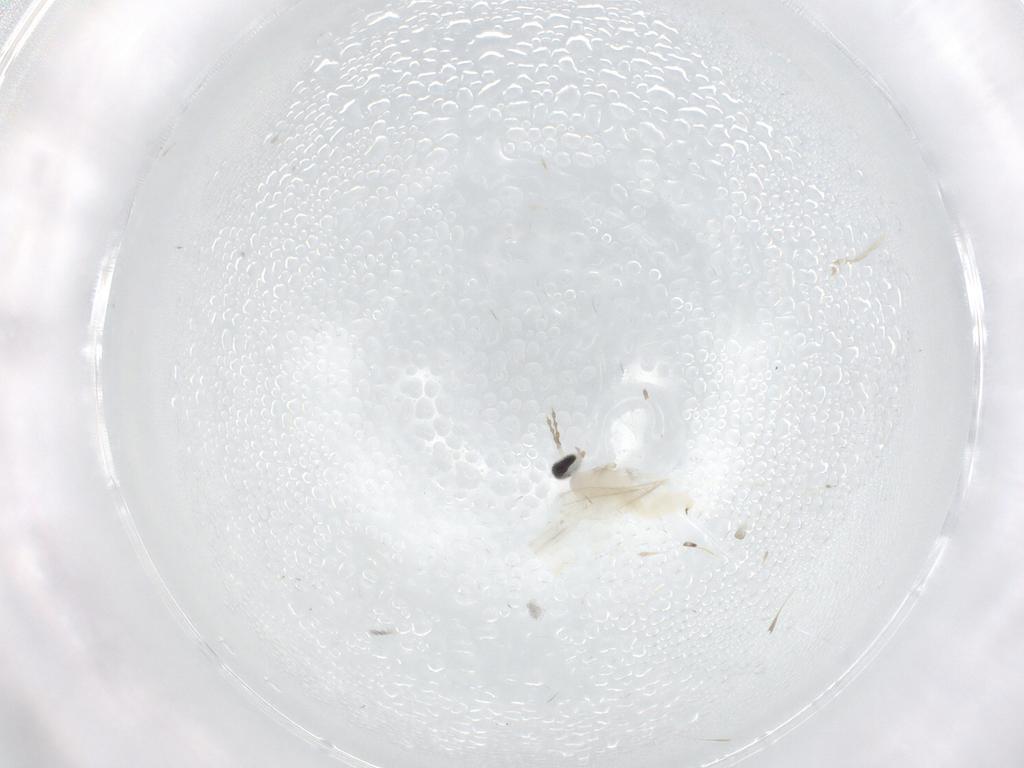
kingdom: Animalia
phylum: Arthropoda
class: Insecta
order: Diptera
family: Cecidomyiidae
